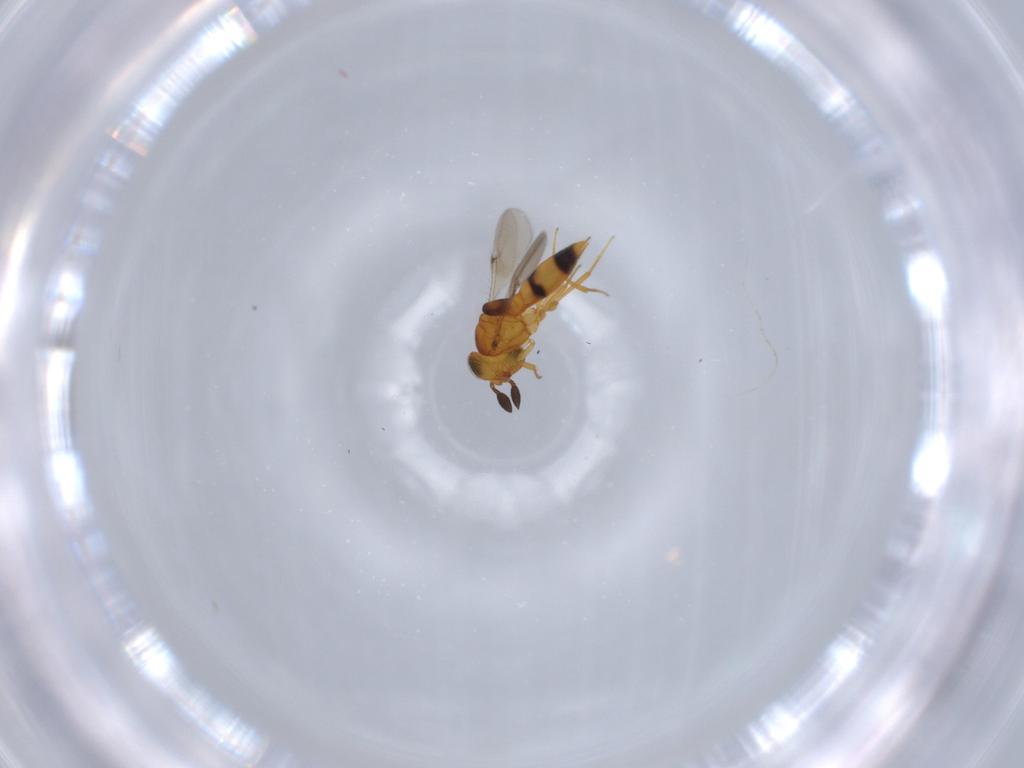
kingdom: Animalia
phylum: Arthropoda
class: Insecta
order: Hymenoptera
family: Scelionidae
